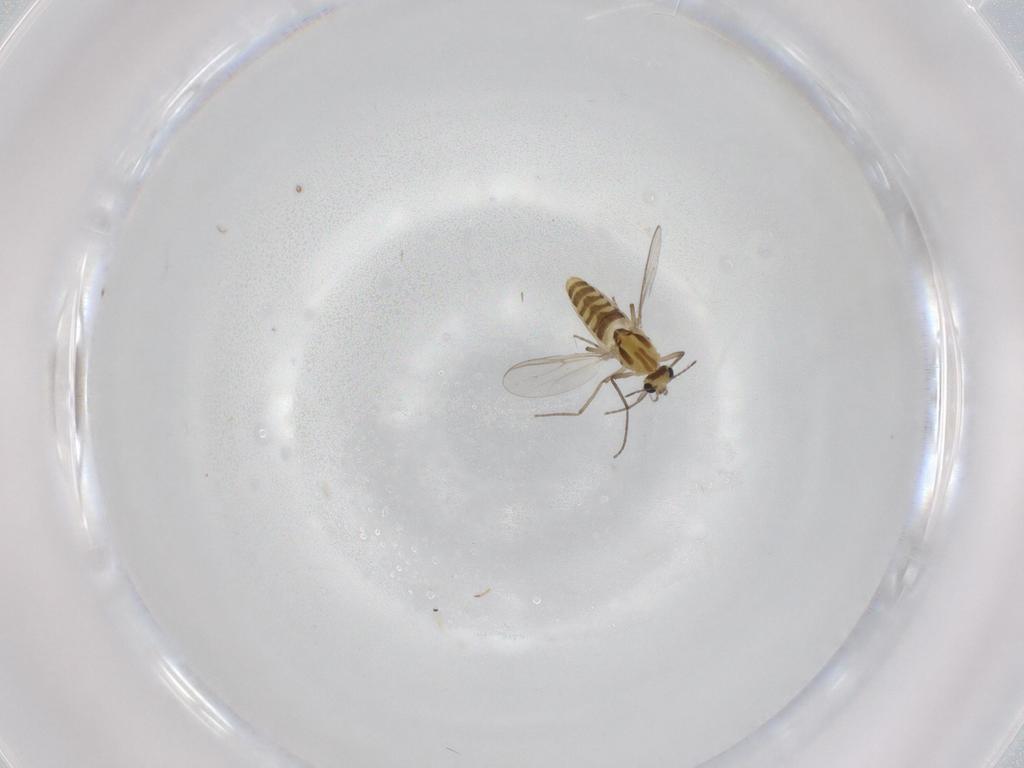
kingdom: Animalia
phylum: Arthropoda
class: Insecta
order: Diptera
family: Chironomidae
